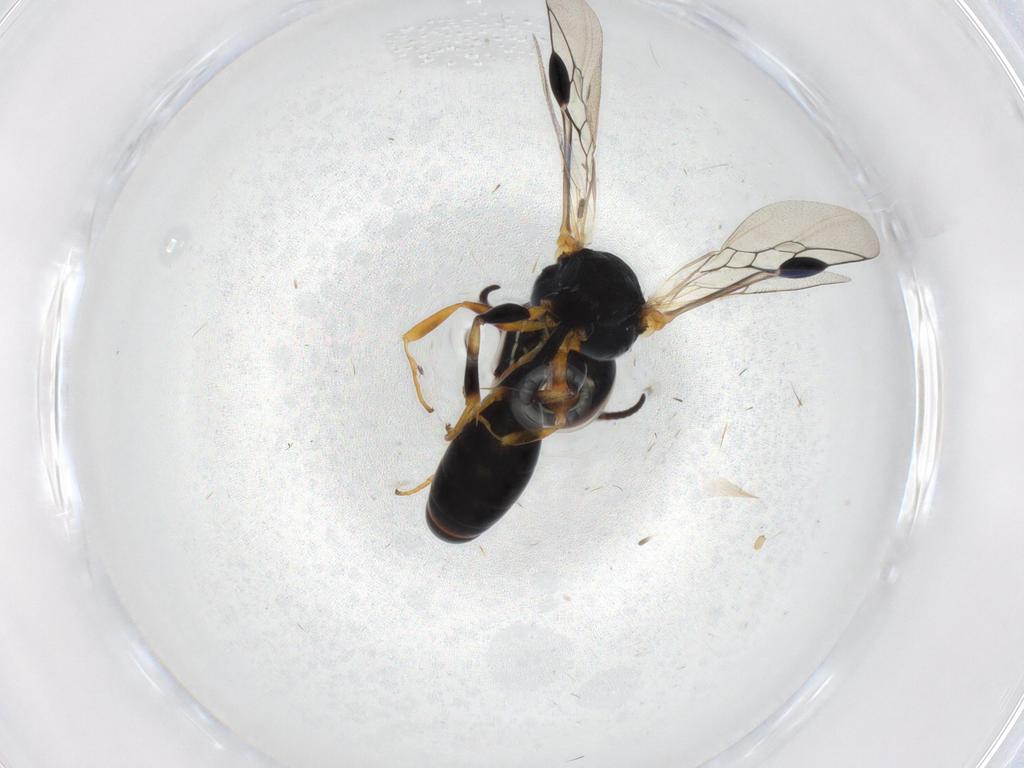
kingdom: Animalia
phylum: Arthropoda
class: Insecta
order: Hymenoptera
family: Pemphredonidae
